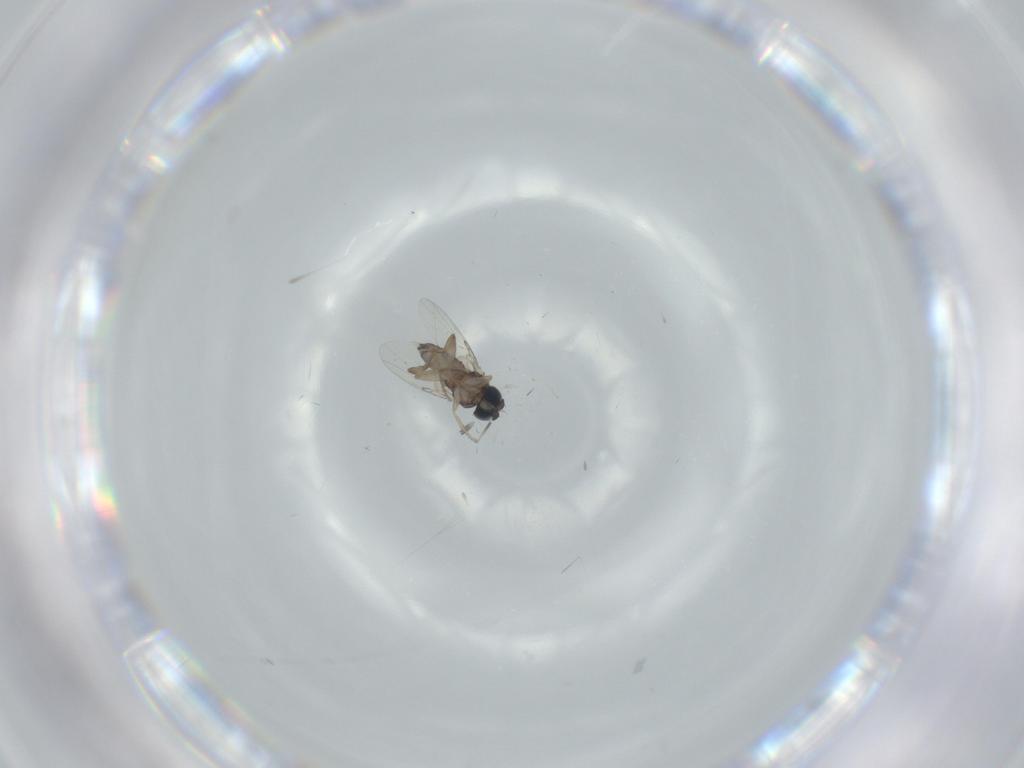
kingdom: Animalia
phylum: Arthropoda
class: Insecta
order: Diptera
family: Phoridae
